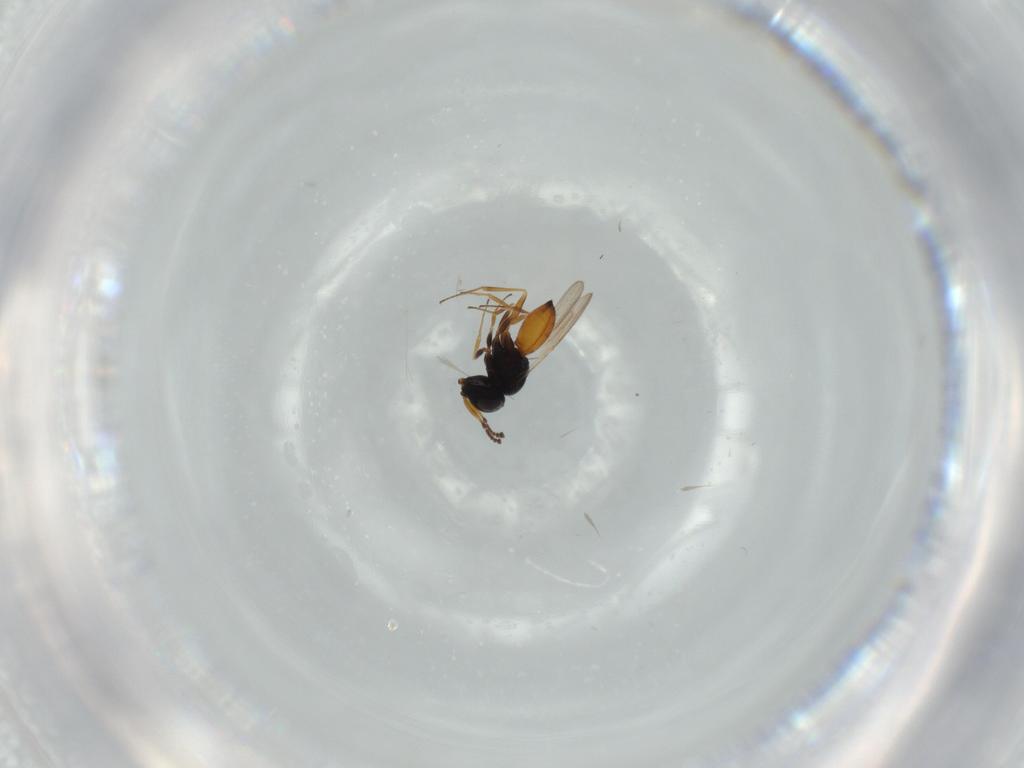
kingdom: Animalia
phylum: Arthropoda
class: Insecta
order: Hymenoptera
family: Scelionidae
